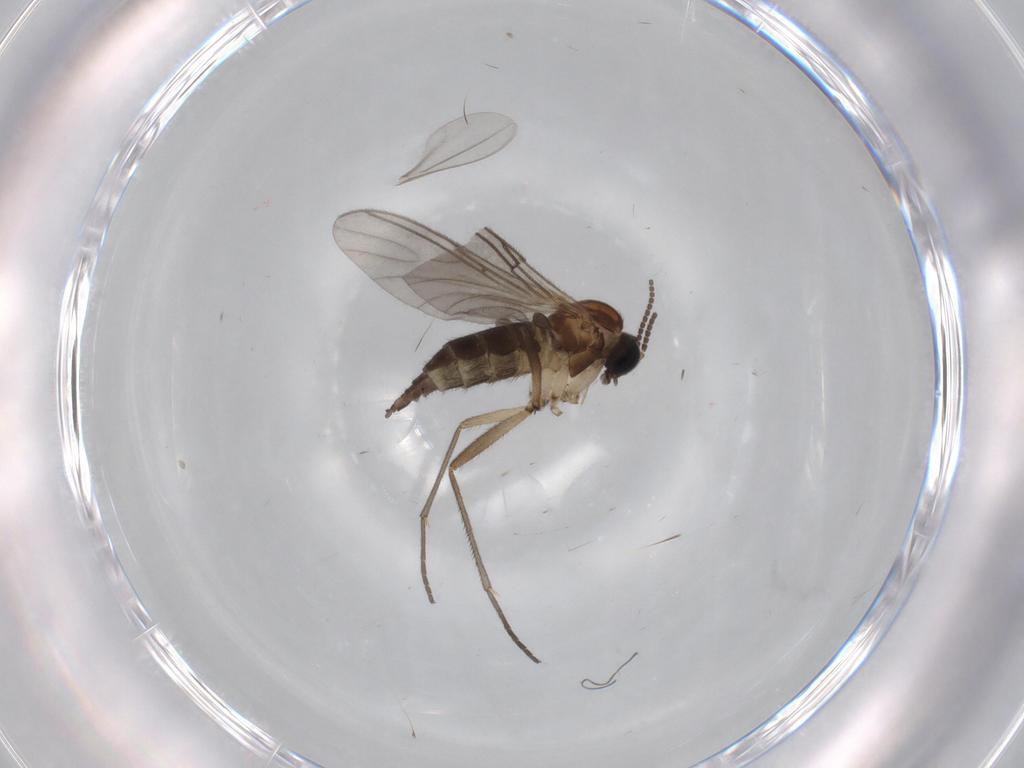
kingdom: Animalia
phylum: Arthropoda
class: Insecta
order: Diptera
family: Sciaridae
